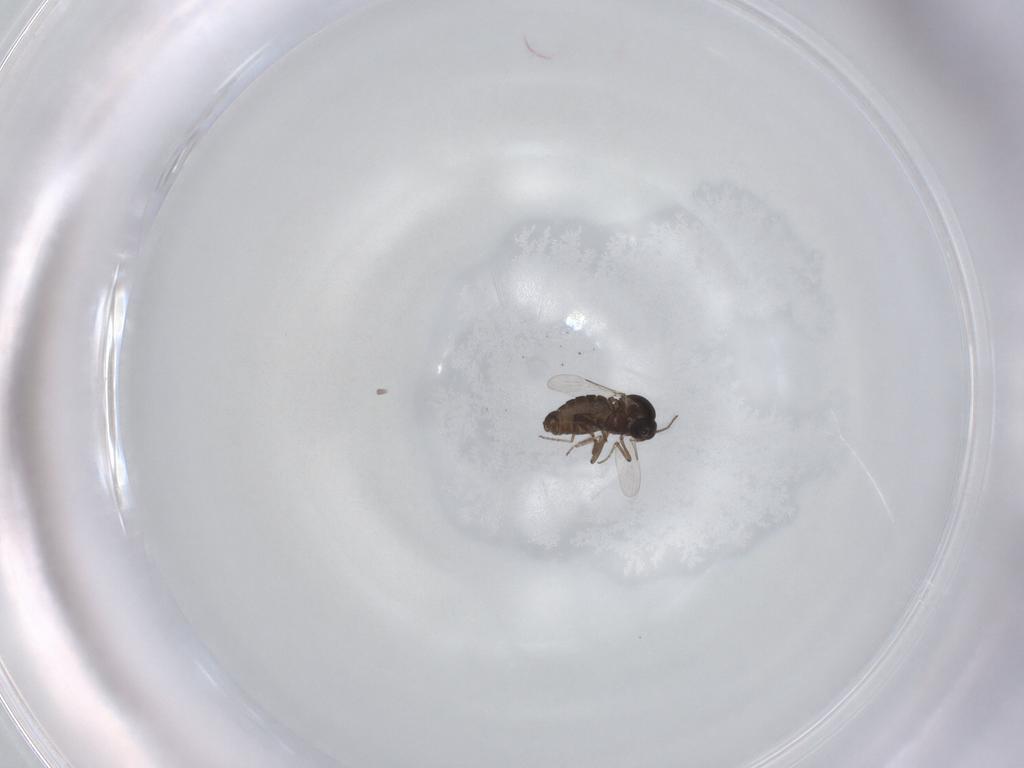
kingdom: Animalia
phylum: Arthropoda
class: Insecta
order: Diptera
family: Ceratopogonidae
